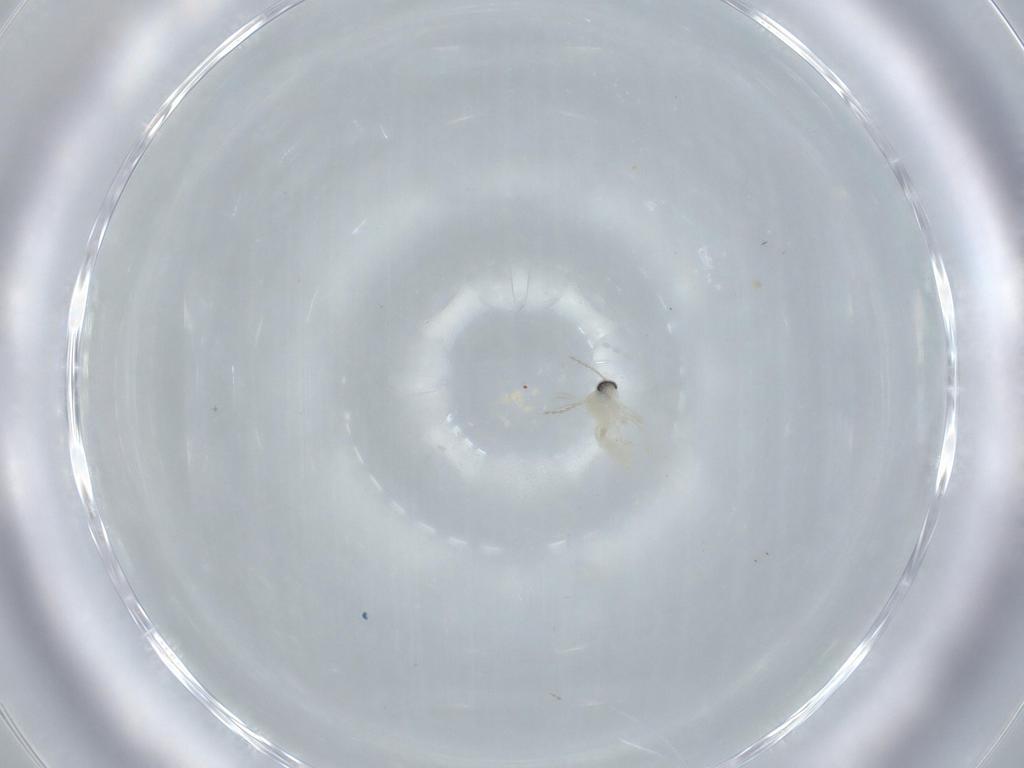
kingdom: Animalia
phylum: Arthropoda
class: Insecta
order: Diptera
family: Cecidomyiidae
